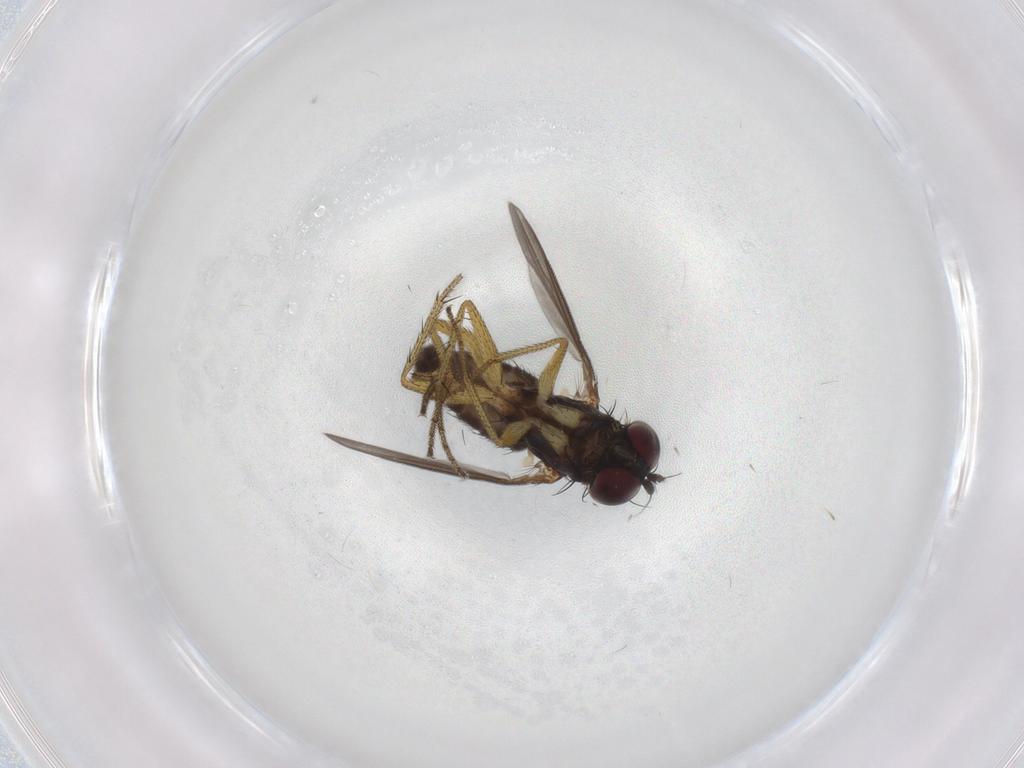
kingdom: Animalia
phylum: Arthropoda
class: Insecta
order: Diptera
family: Dolichopodidae
